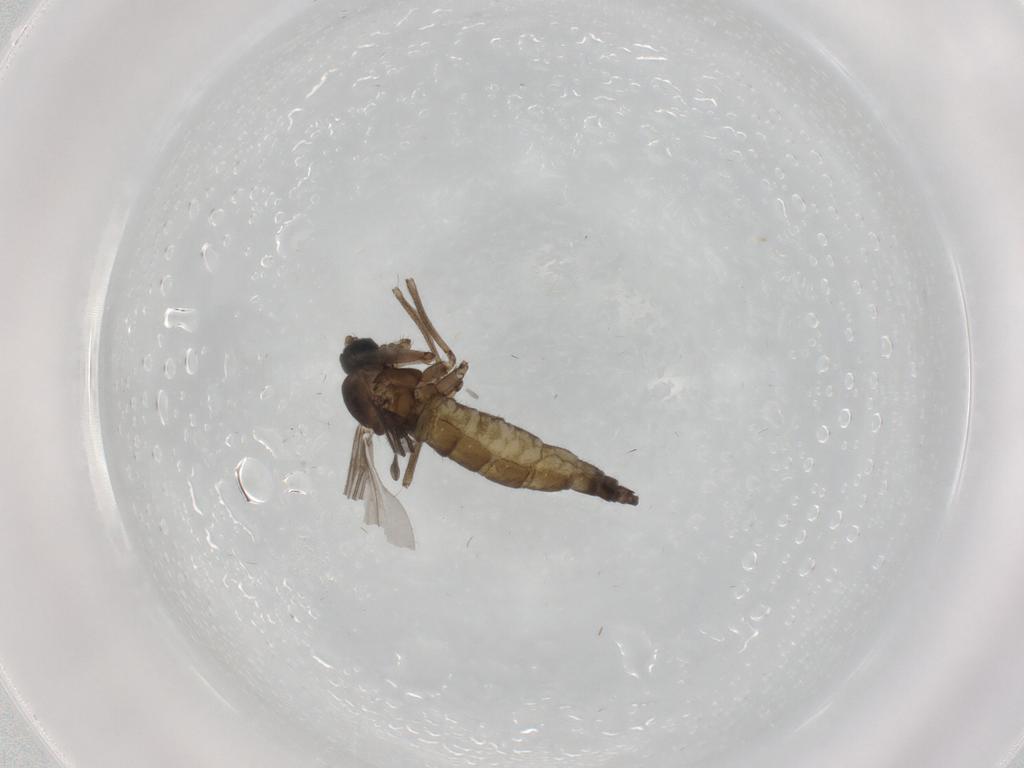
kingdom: Animalia
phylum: Arthropoda
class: Insecta
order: Diptera
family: Sciaridae
